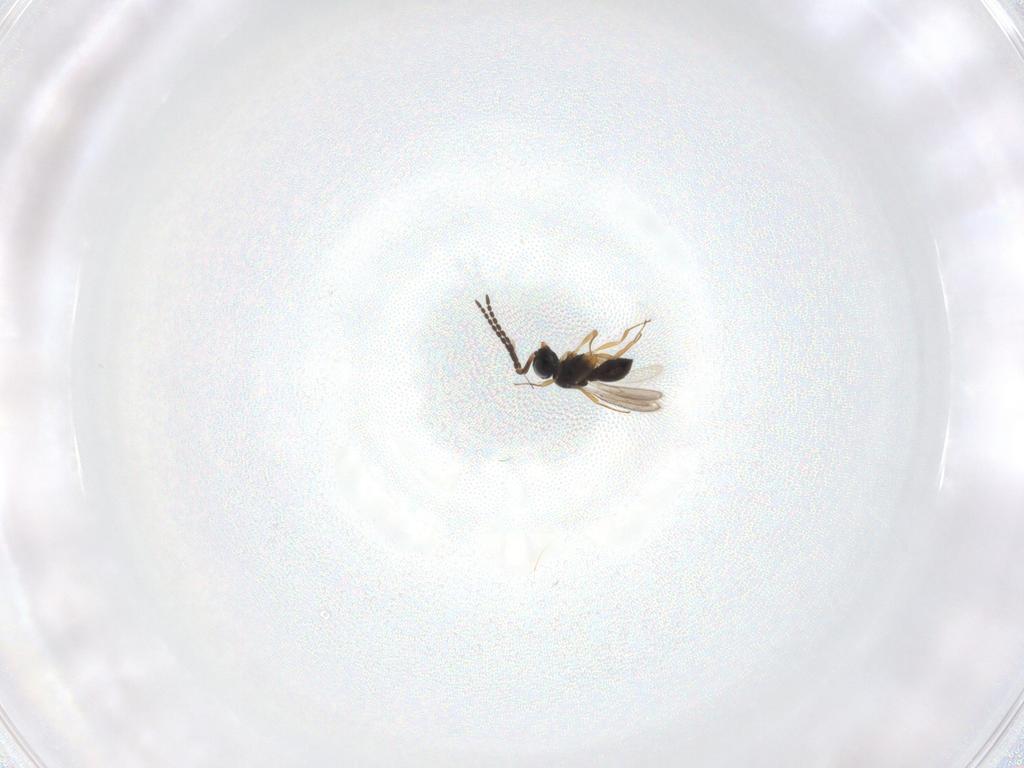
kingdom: Animalia
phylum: Arthropoda
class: Insecta
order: Hymenoptera
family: Scelionidae
